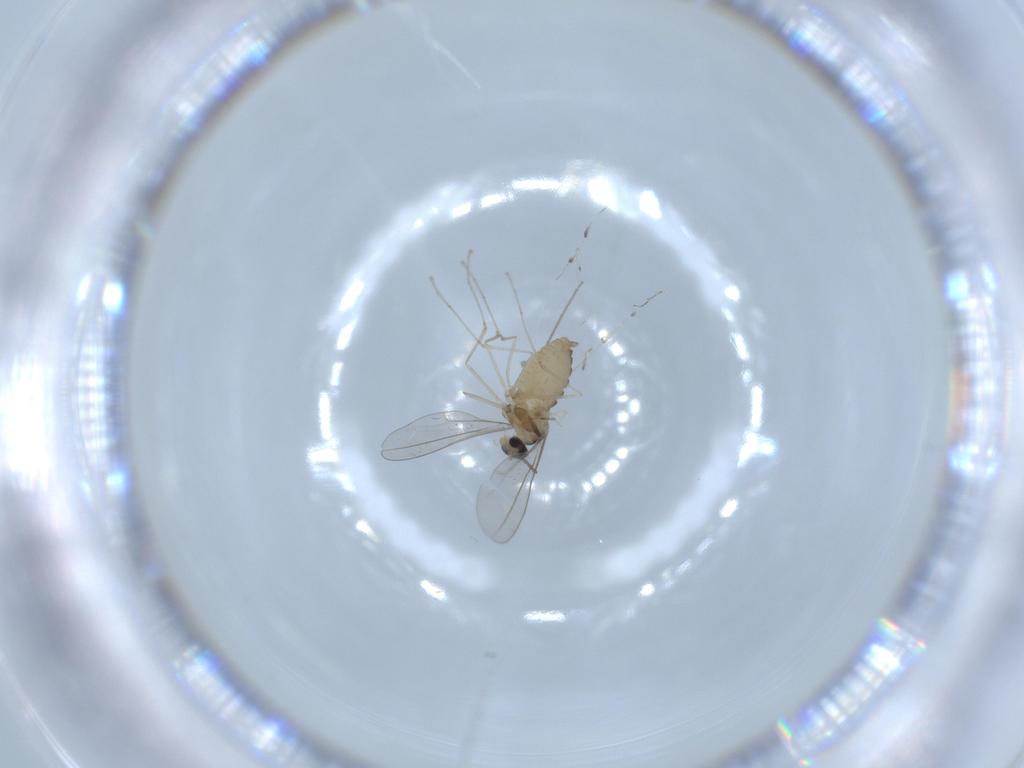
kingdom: Animalia
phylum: Arthropoda
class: Insecta
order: Diptera
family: Cecidomyiidae
